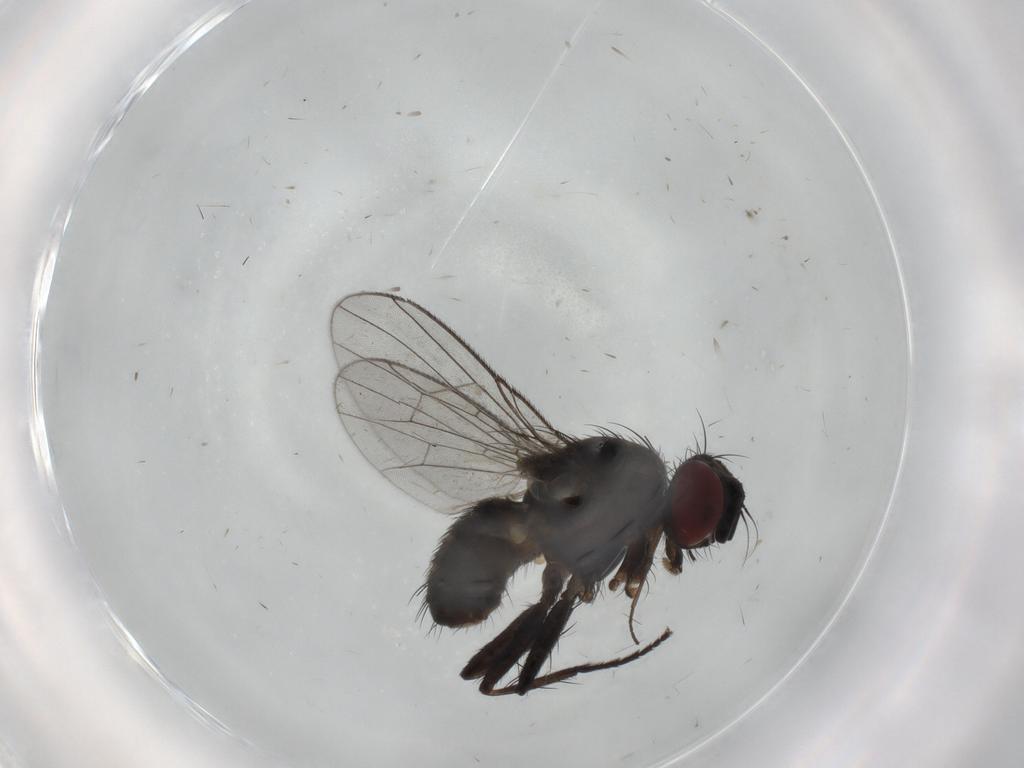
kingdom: Animalia
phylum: Arthropoda
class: Insecta
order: Diptera
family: Muscidae
